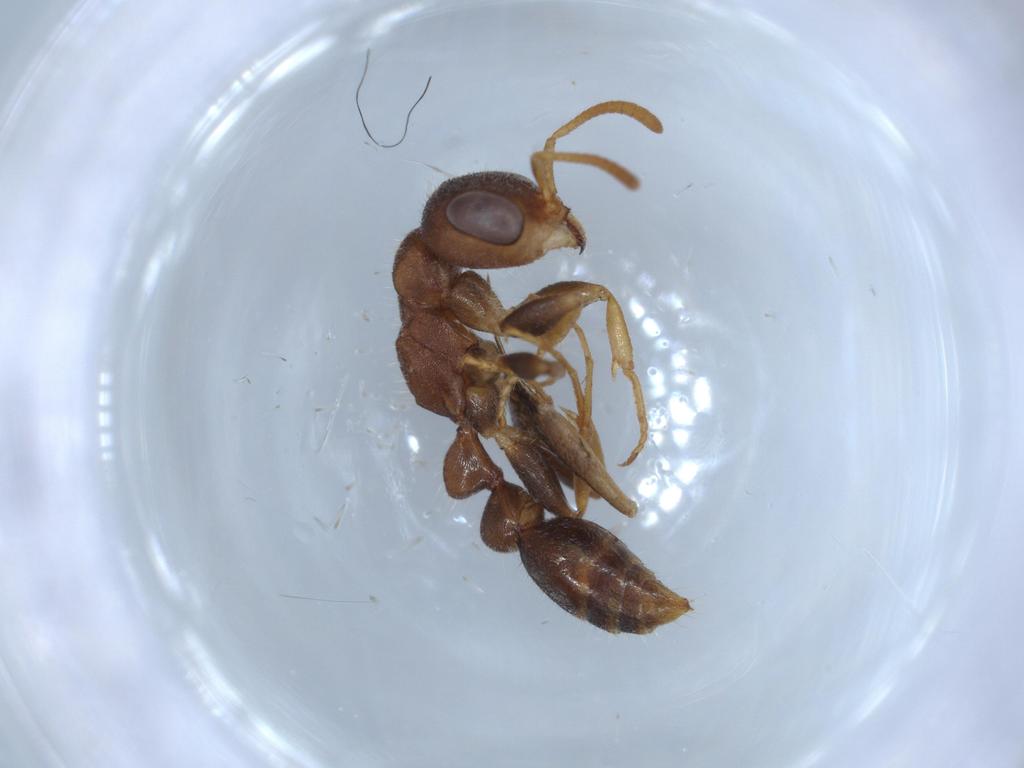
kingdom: Animalia
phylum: Arthropoda
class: Insecta
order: Hymenoptera
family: Formicidae
